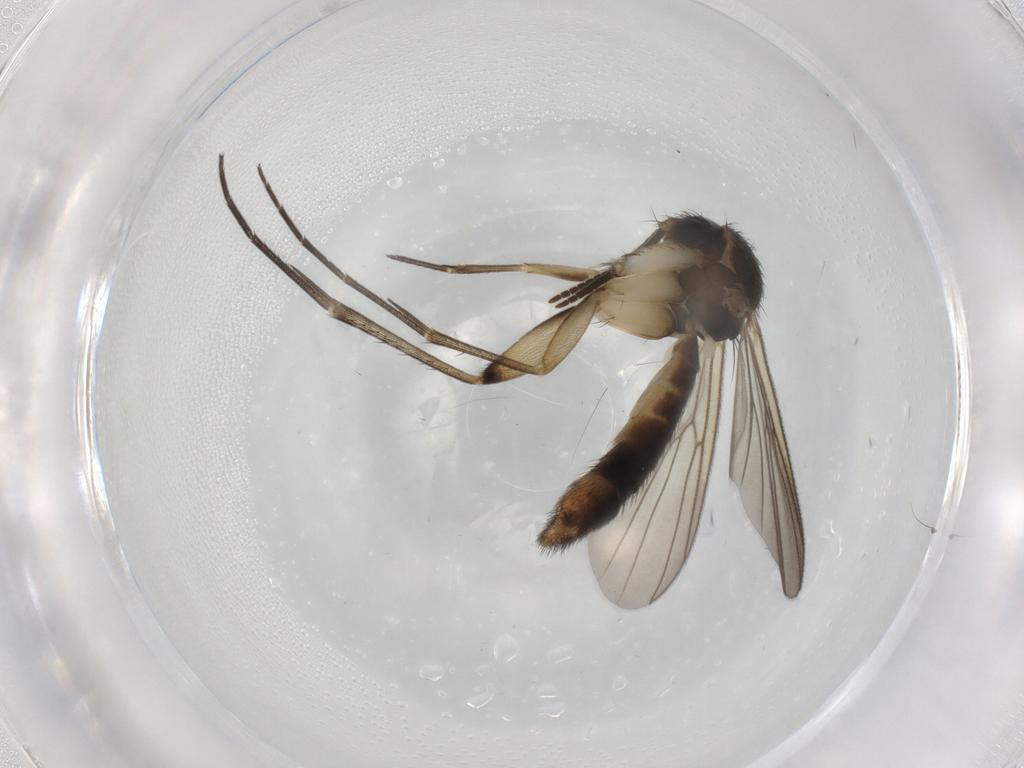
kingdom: Animalia
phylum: Arthropoda
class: Insecta
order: Diptera
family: Mycetophilidae
